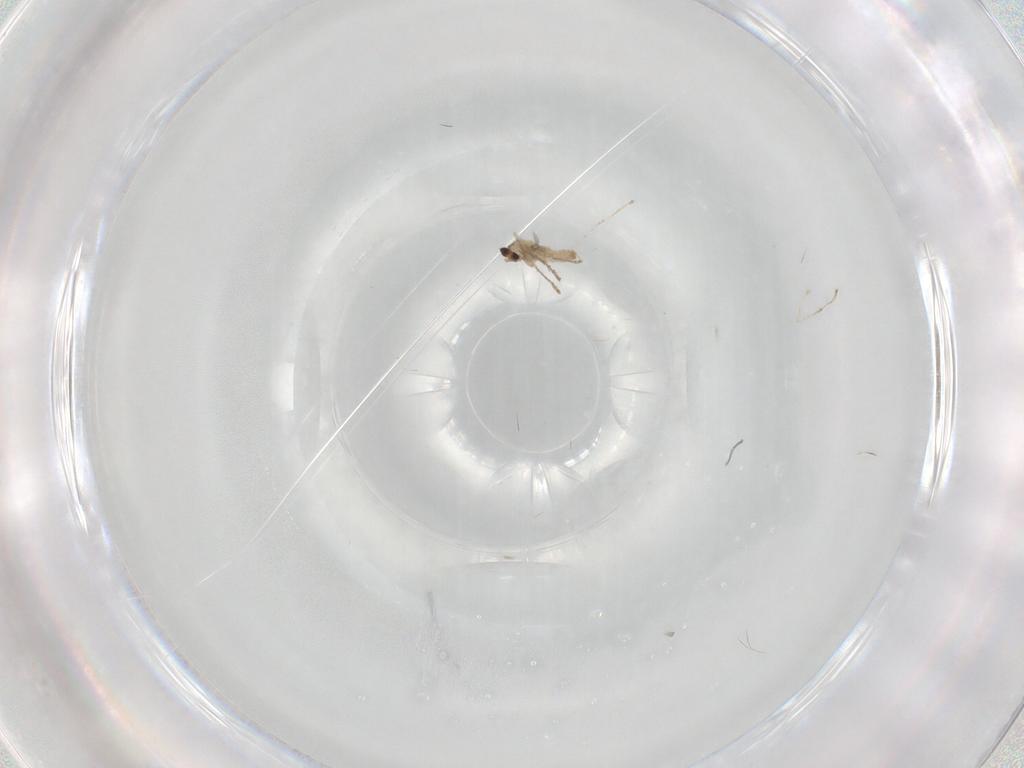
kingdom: Animalia
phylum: Arthropoda
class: Insecta
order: Diptera
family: Cecidomyiidae
